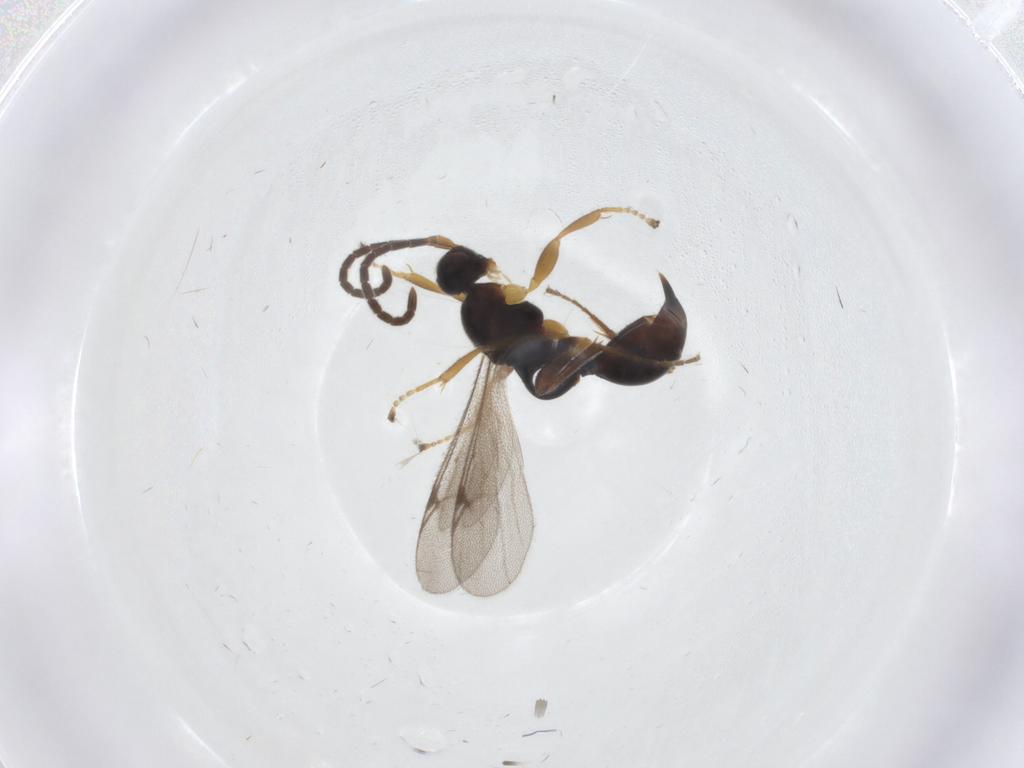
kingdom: Animalia
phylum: Arthropoda
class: Insecta
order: Hymenoptera
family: Proctotrupidae
